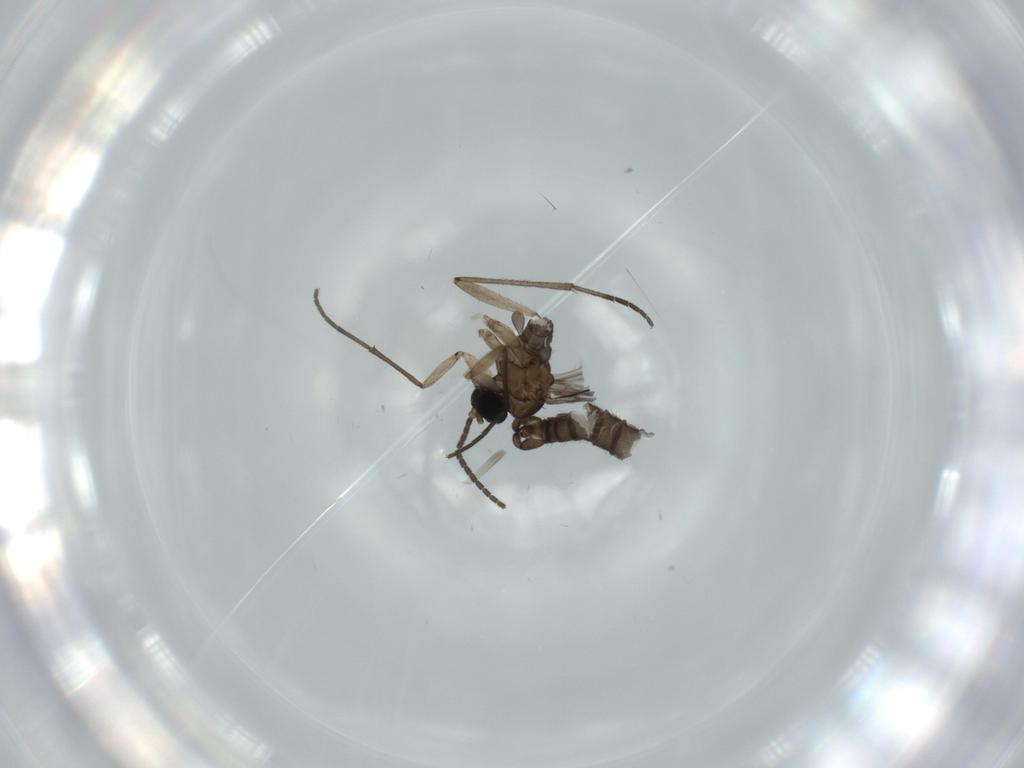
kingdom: Animalia
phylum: Arthropoda
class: Insecta
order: Diptera
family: Sciaridae
